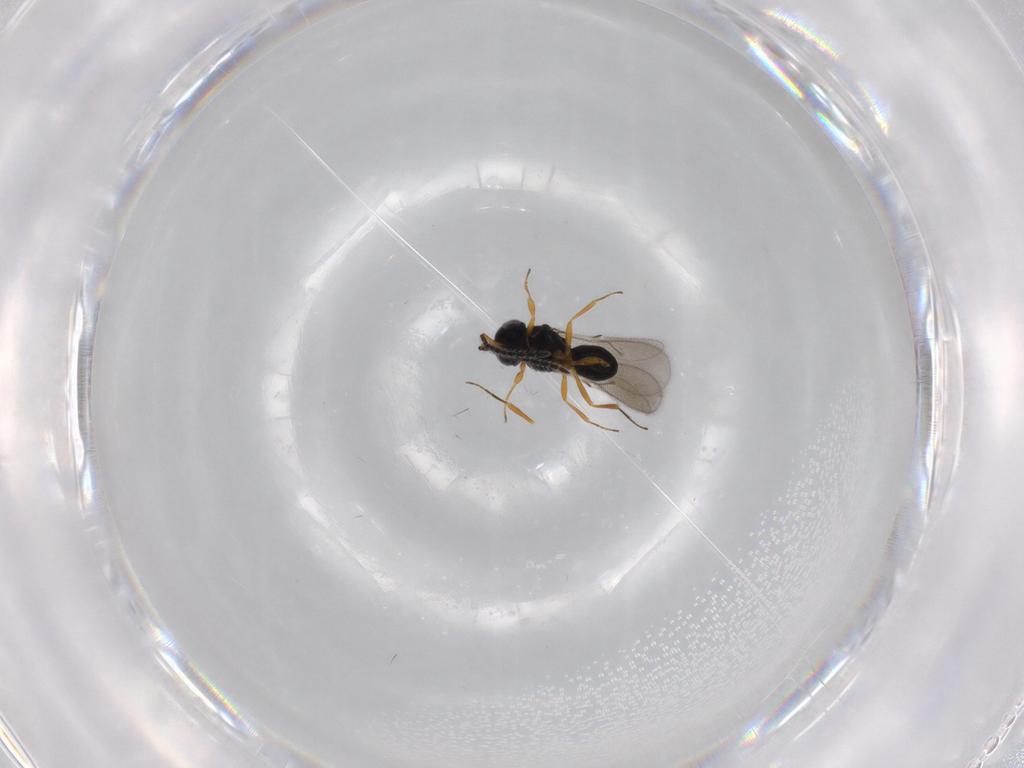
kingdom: Animalia
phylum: Arthropoda
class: Insecta
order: Hymenoptera
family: Scelionidae
